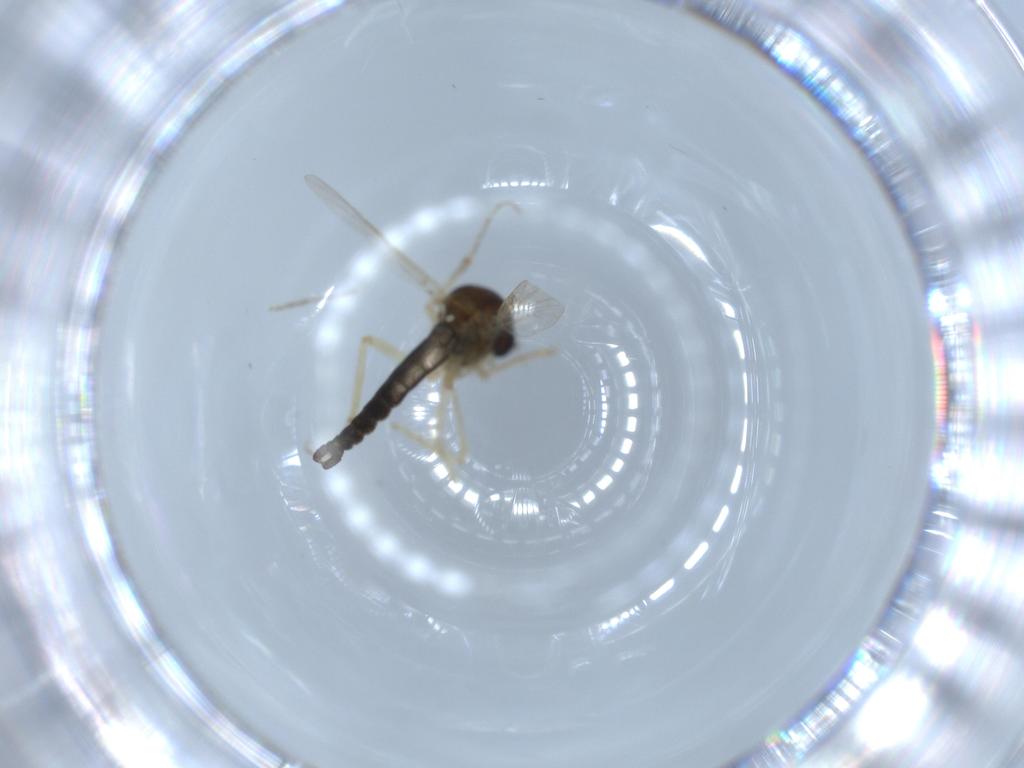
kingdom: Animalia
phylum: Arthropoda
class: Insecta
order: Diptera
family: Ceratopogonidae
